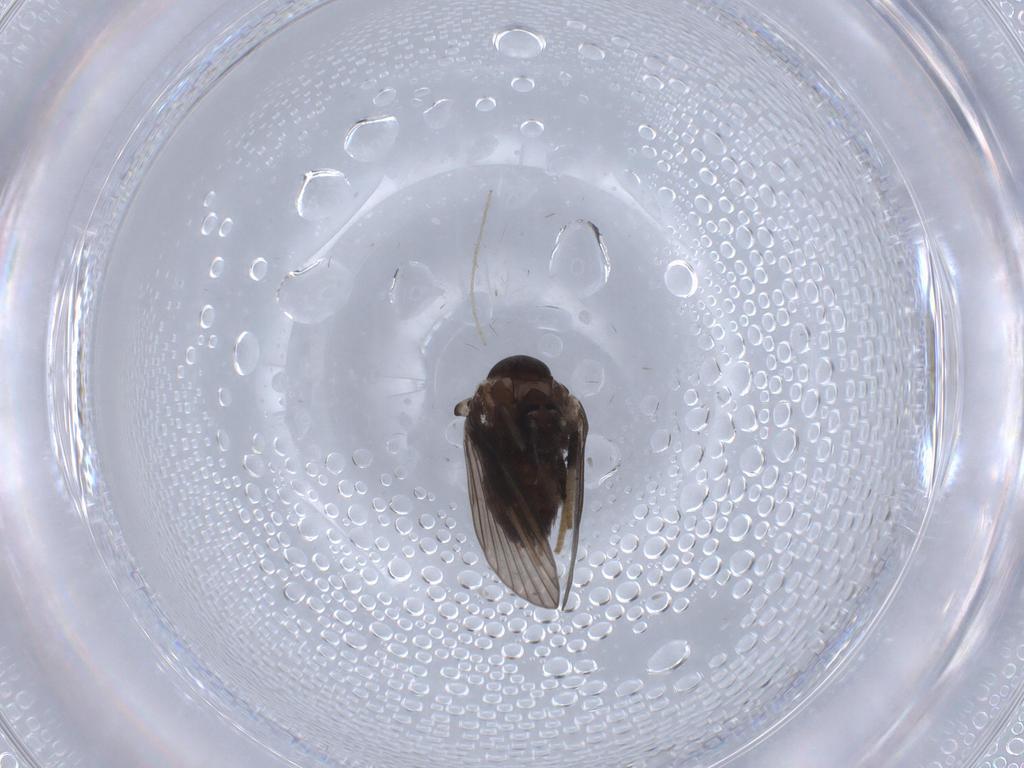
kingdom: Animalia
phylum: Arthropoda
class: Insecta
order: Diptera
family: Psychodidae
